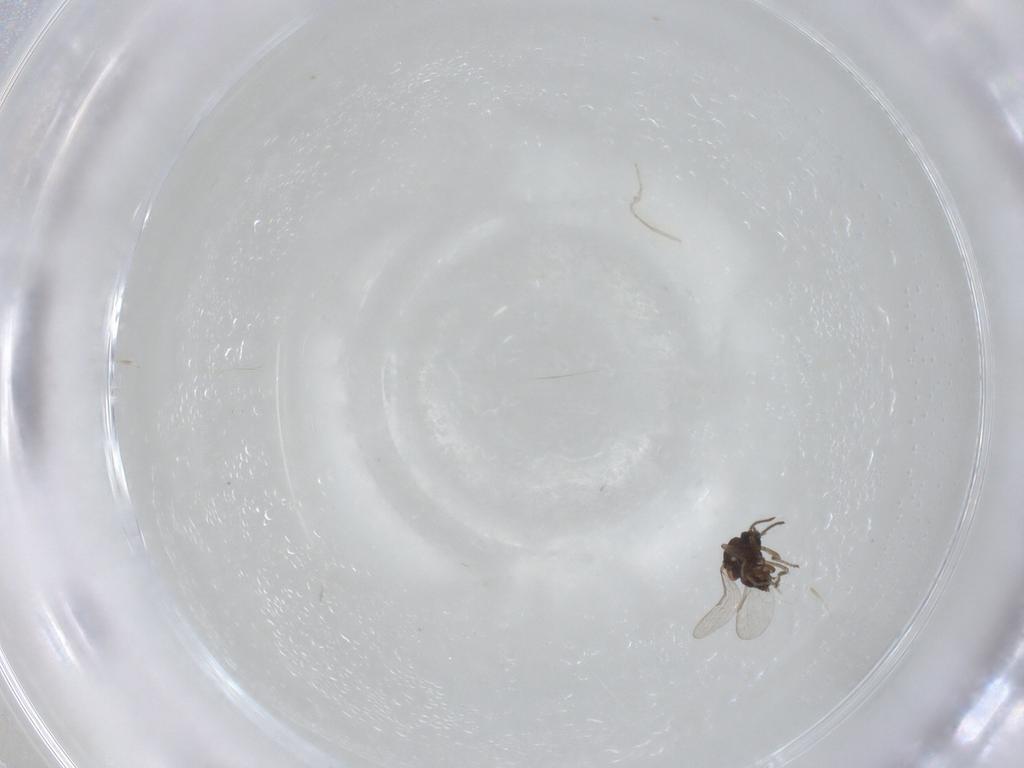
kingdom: Animalia
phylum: Arthropoda
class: Insecta
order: Diptera
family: Ceratopogonidae
